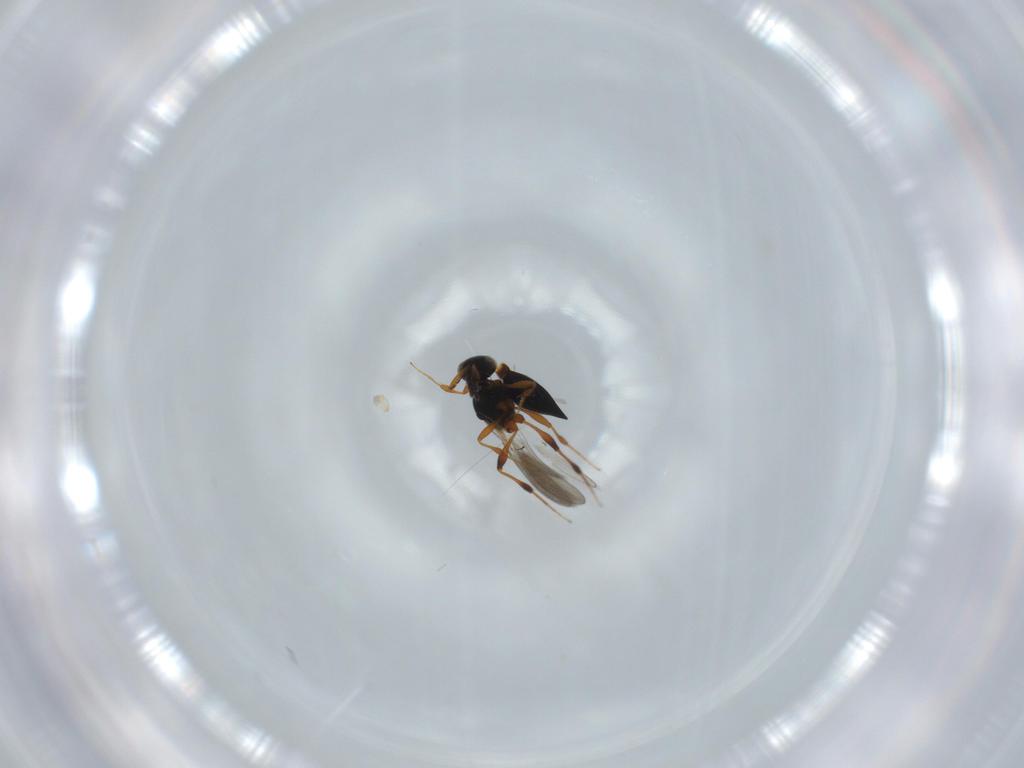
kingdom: Animalia
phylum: Arthropoda
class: Insecta
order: Hymenoptera
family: Platygastridae
